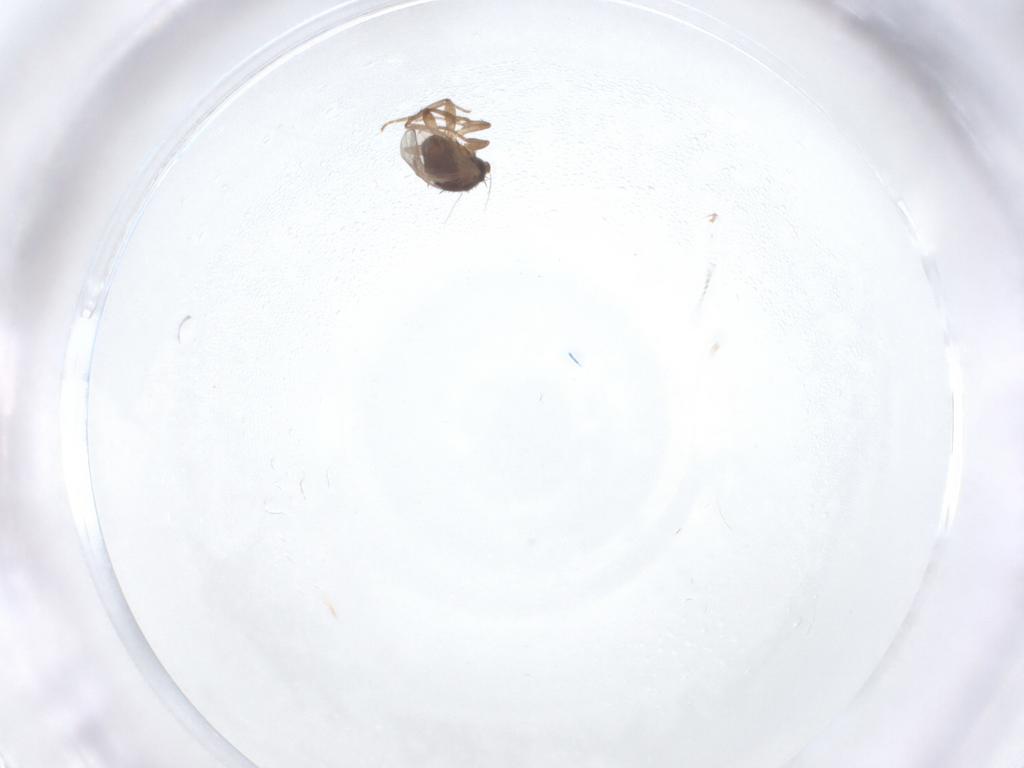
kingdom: Animalia
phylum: Arthropoda
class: Insecta
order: Diptera
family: Sphaeroceridae
